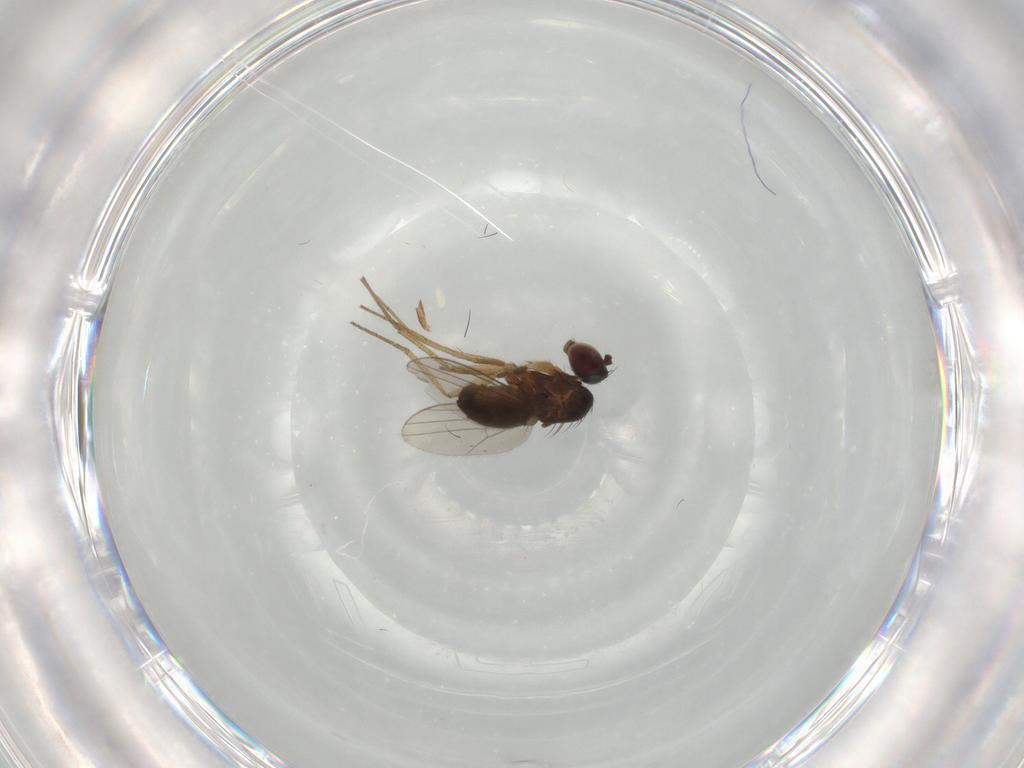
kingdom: Animalia
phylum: Arthropoda
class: Insecta
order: Diptera
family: Dolichopodidae
